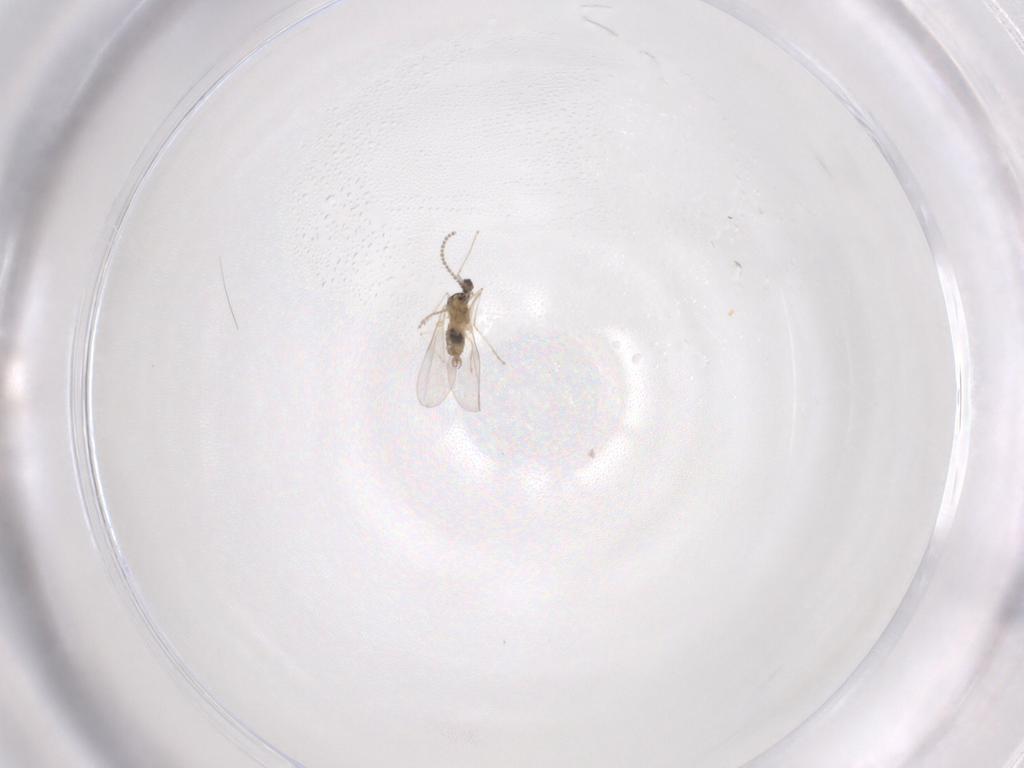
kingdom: Animalia
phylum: Arthropoda
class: Insecta
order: Diptera
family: Cecidomyiidae
